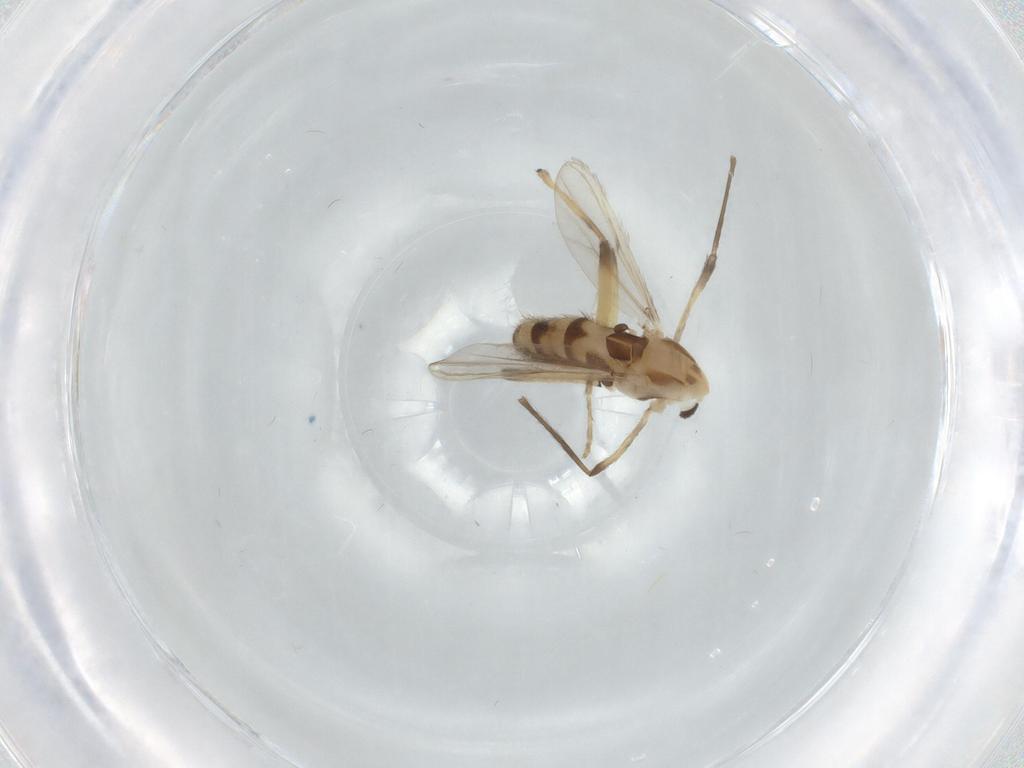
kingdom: Animalia
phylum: Arthropoda
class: Insecta
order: Diptera
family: Chironomidae
